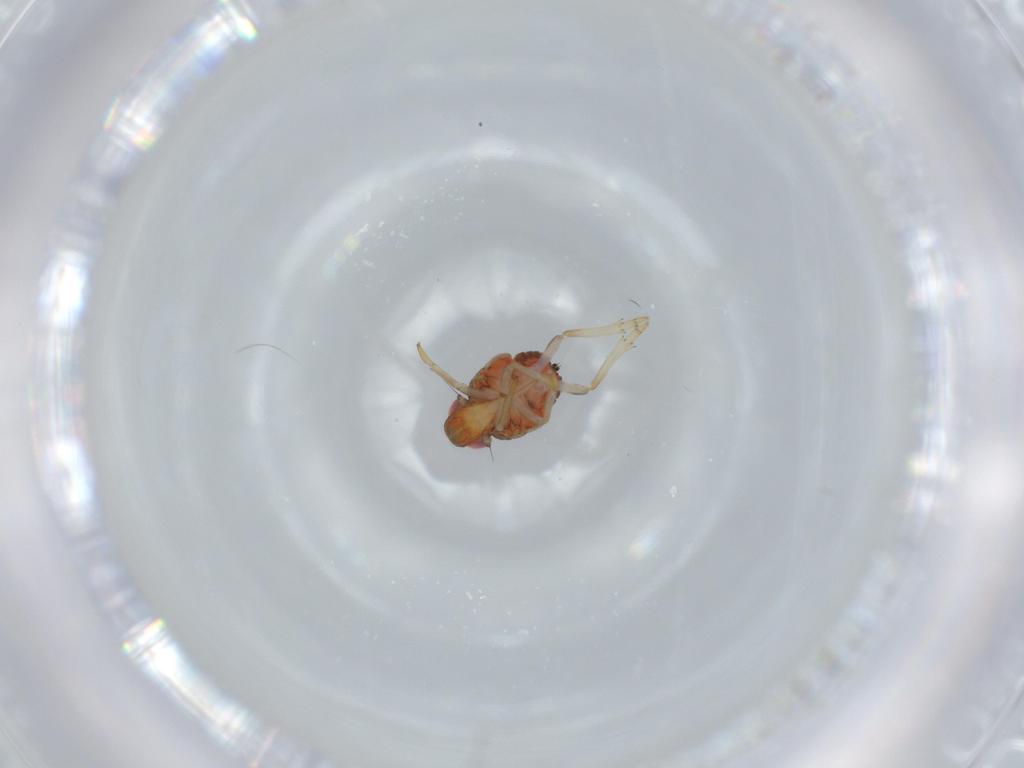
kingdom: Animalia
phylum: Arthropoda
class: Insecta
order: Hemiptera
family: Issidae
